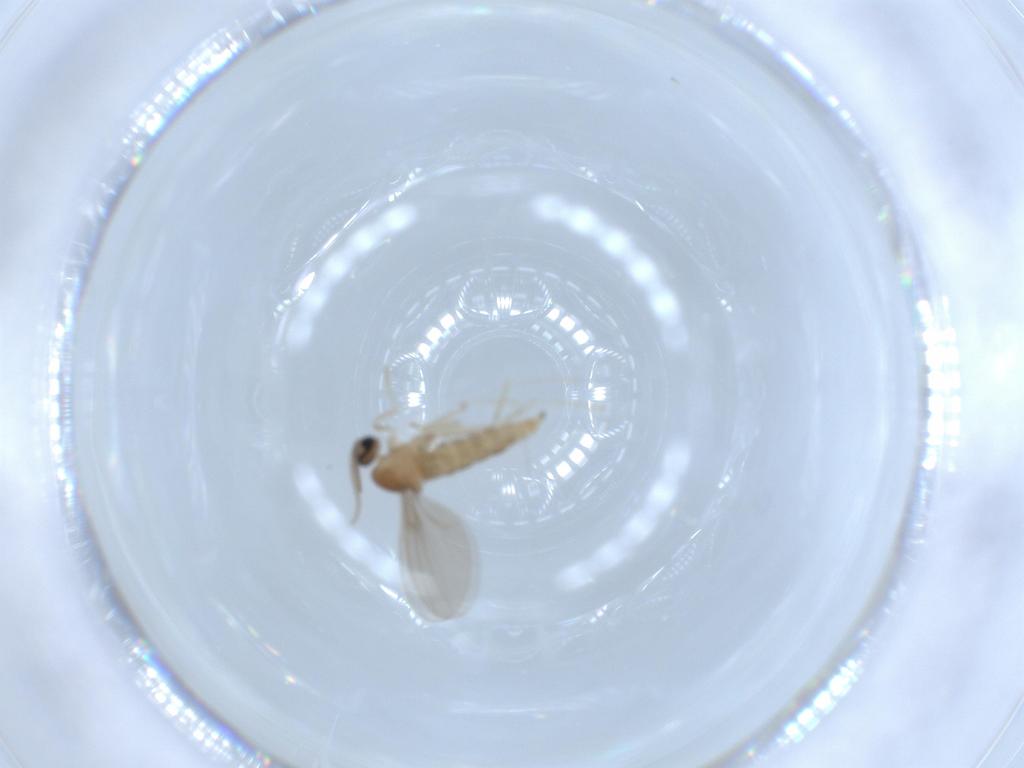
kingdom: Animalia
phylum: Arthropoda
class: Insecta
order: Diptera
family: Cecidomyiidae
